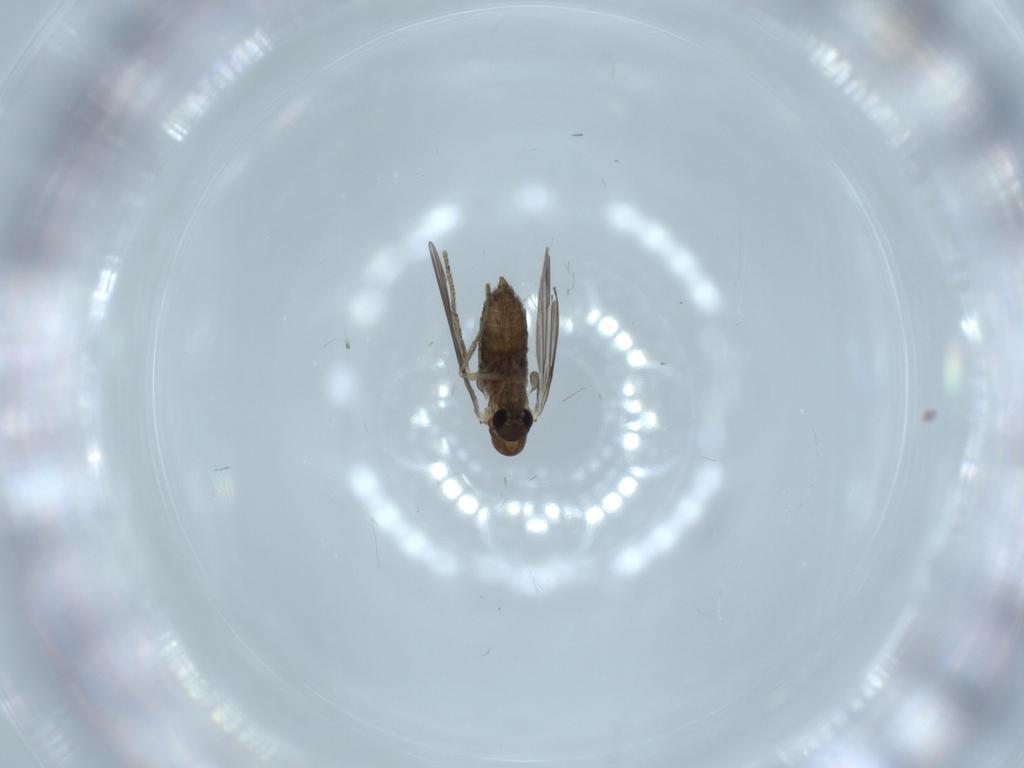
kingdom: Animalia
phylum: Arthropoda
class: Insecta
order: Diptera
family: Psychodidae
